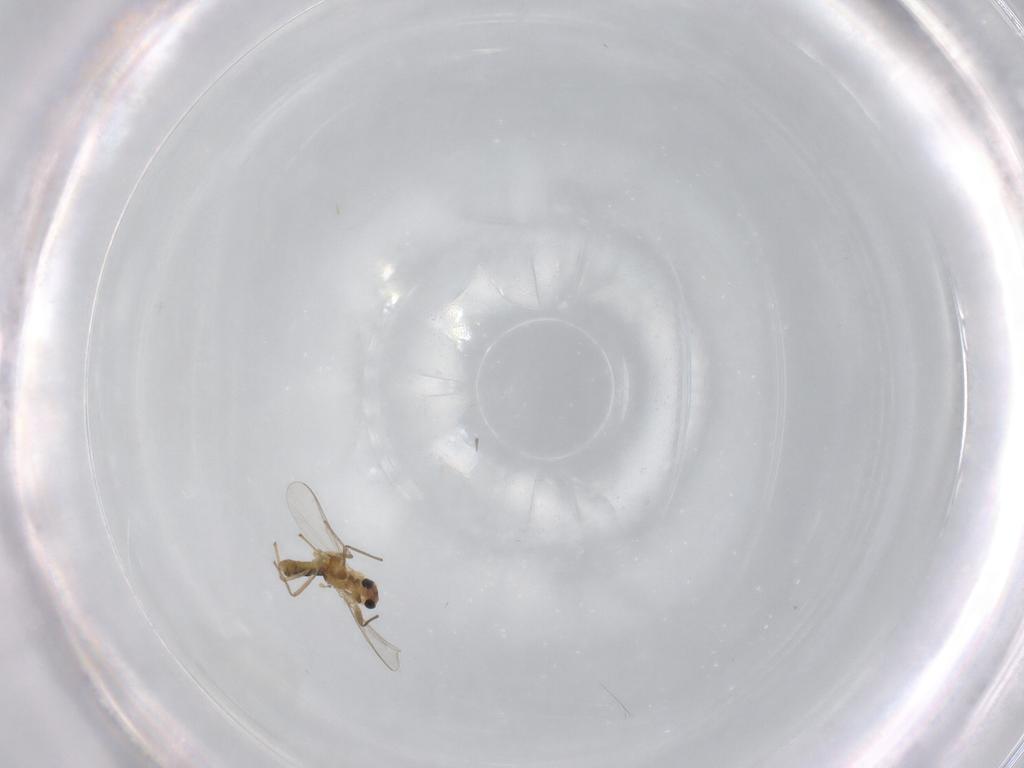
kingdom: Animalia
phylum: Arthropoda
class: Insecta
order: Diptera
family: Chironomidae
